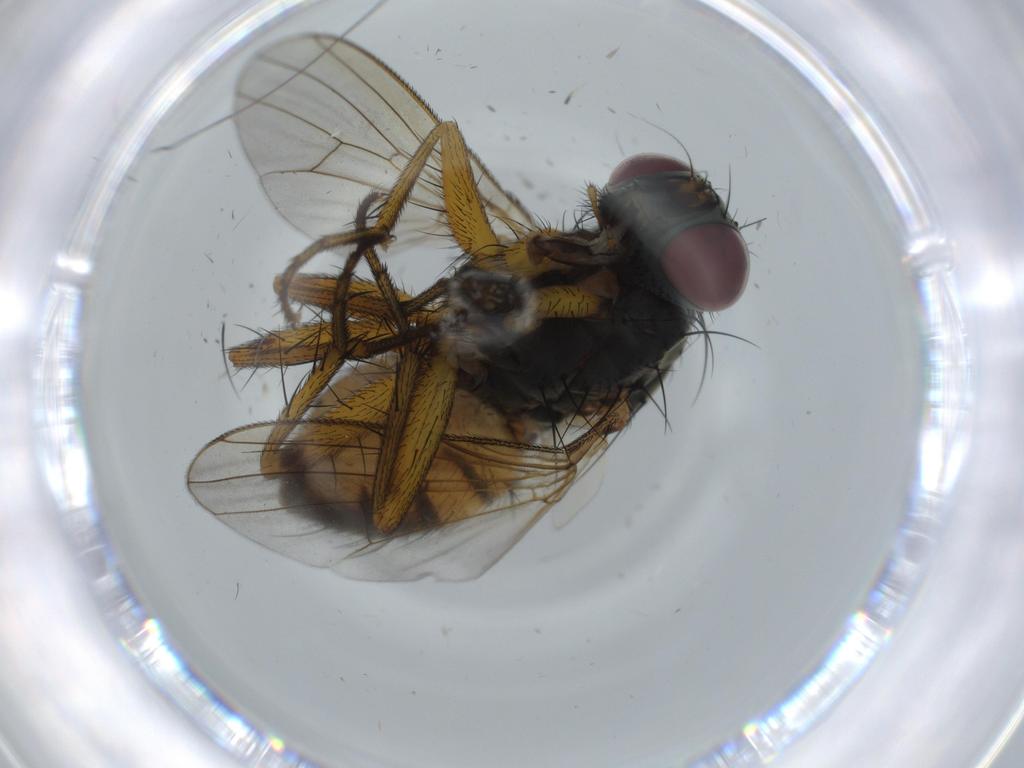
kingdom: Animalia
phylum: Arthropoda
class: Insecta
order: Diptera
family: Muscidae
